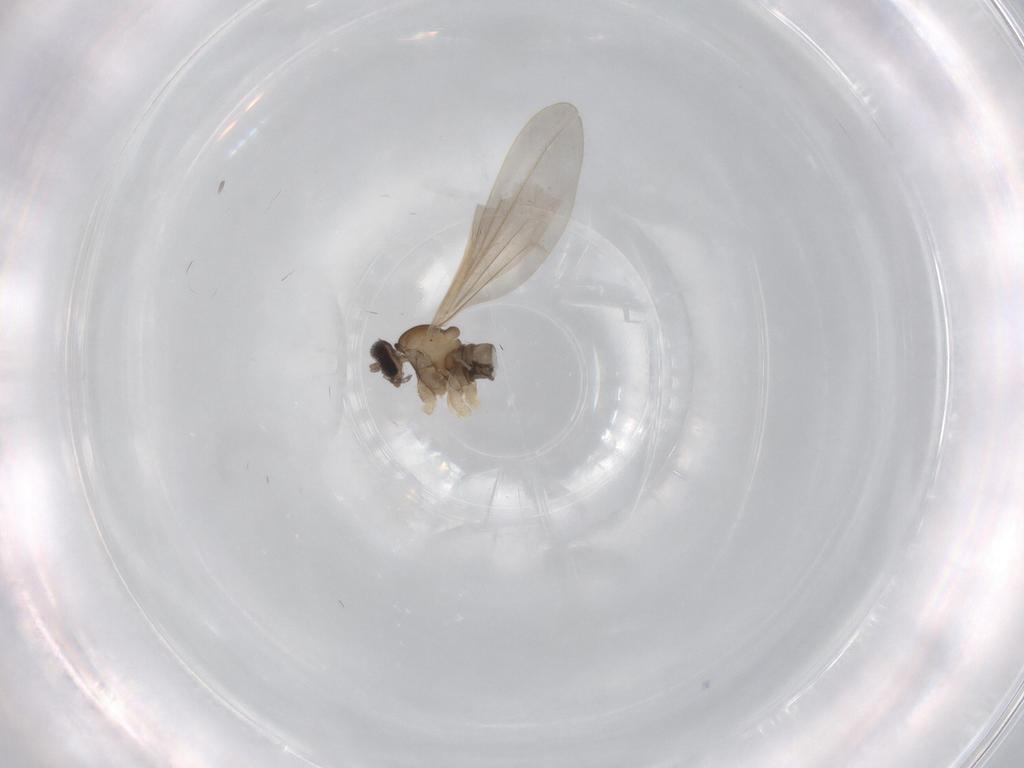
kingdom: Animalia
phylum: Arthropoda
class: Insecta
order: Diptera
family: Cecidomyiidae
